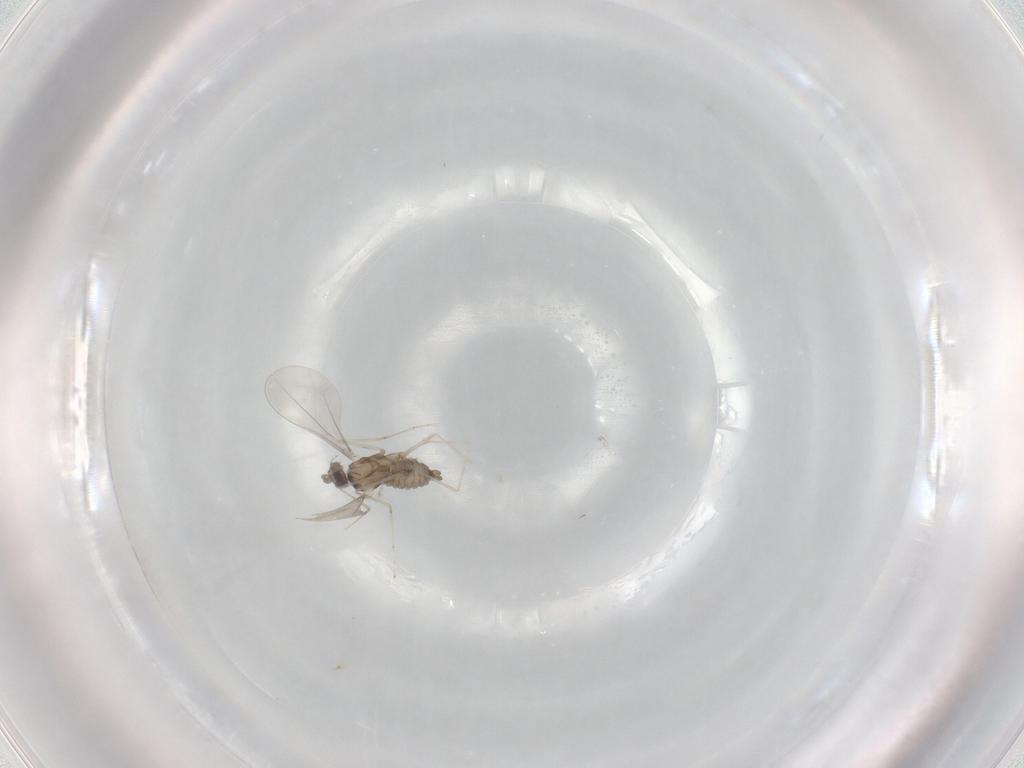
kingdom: Animalia
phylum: Arthropoda
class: Insecta
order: Diptera
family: Cecidomyiidae
